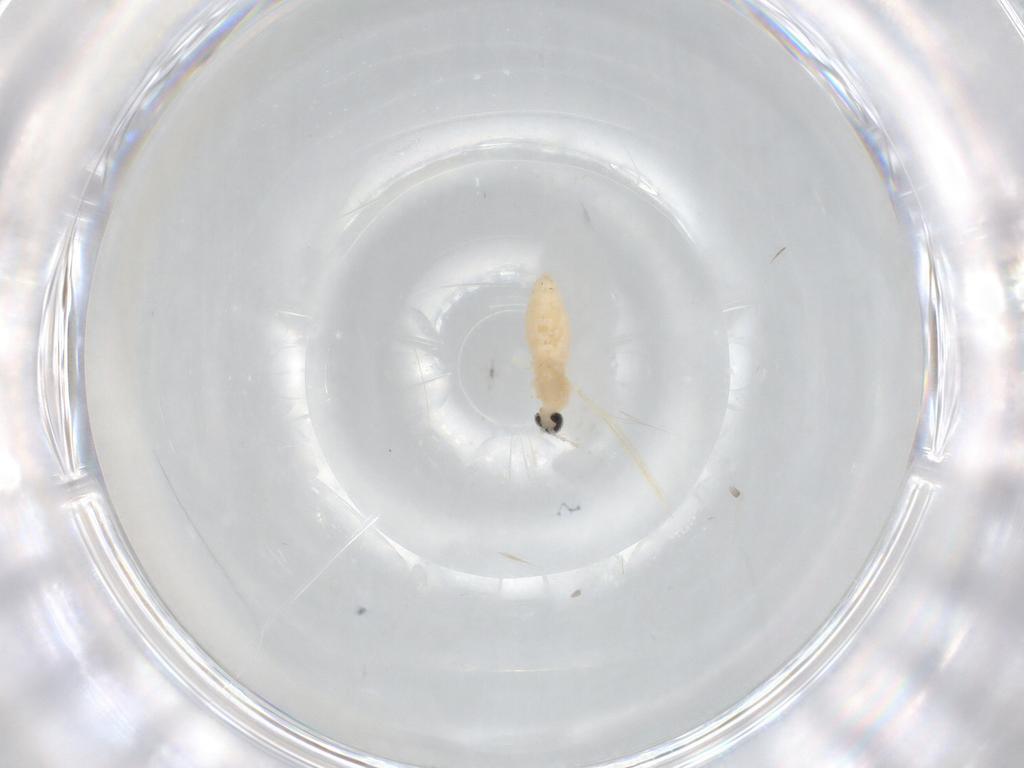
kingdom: Animalia
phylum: Arthropoda
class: Insecta
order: Diptera
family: Cecidomyiidae
